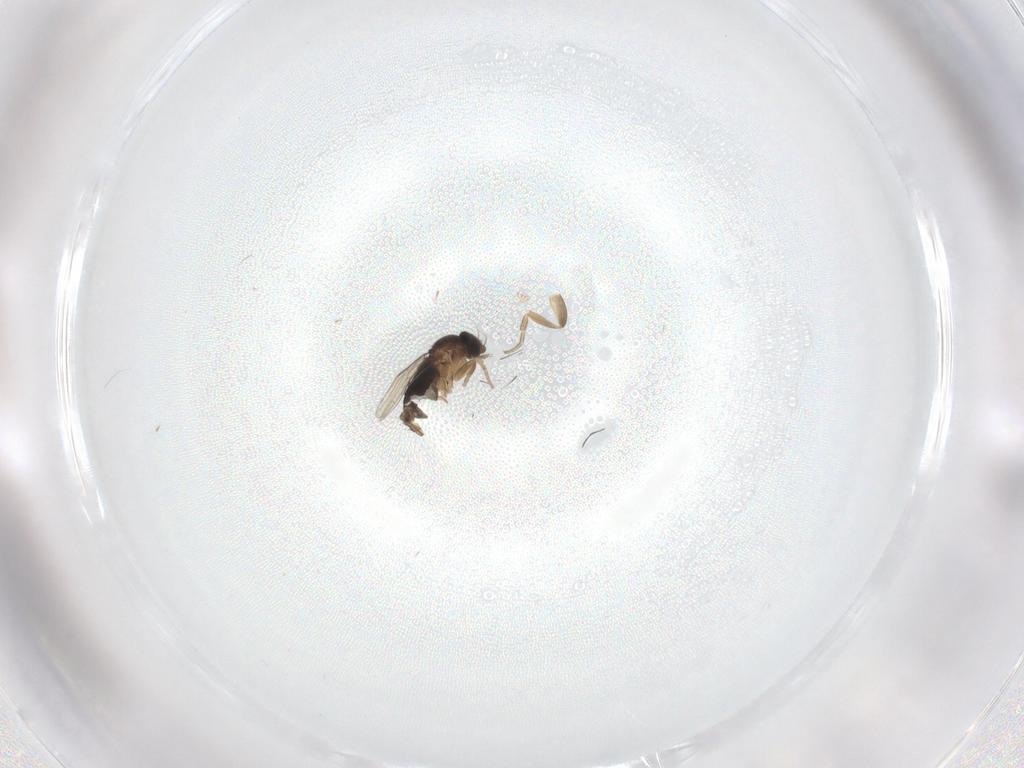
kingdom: Animalia
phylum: Arthropoda
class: Insecta
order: Diptera
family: Phoridae
